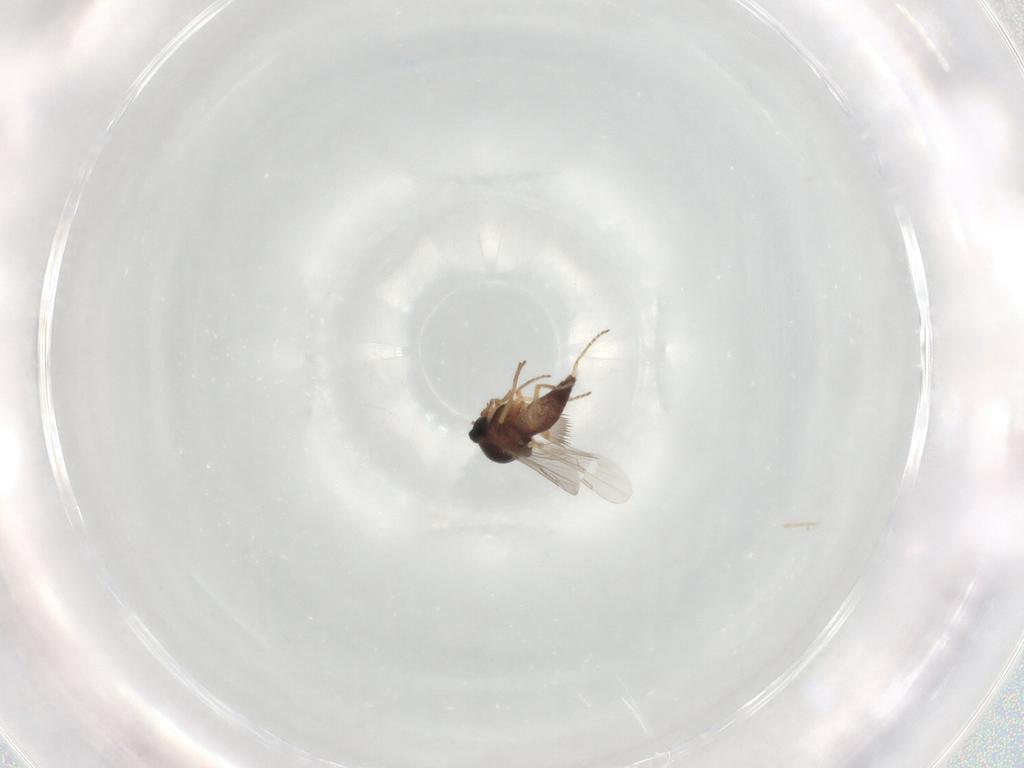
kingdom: Animalia
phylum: Arthropoda
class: Insecta
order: Diptera
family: Ceratopogonidae
